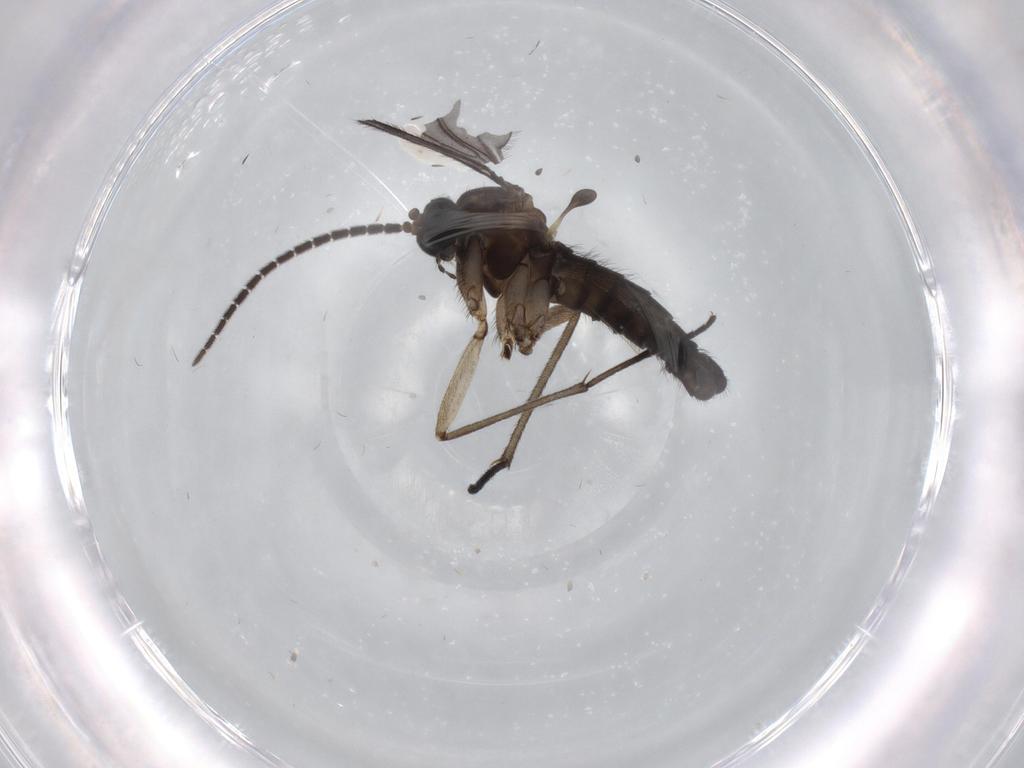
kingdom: Animalia
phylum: Arthropoda
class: Insecta
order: Diptera
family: Sciaridae
